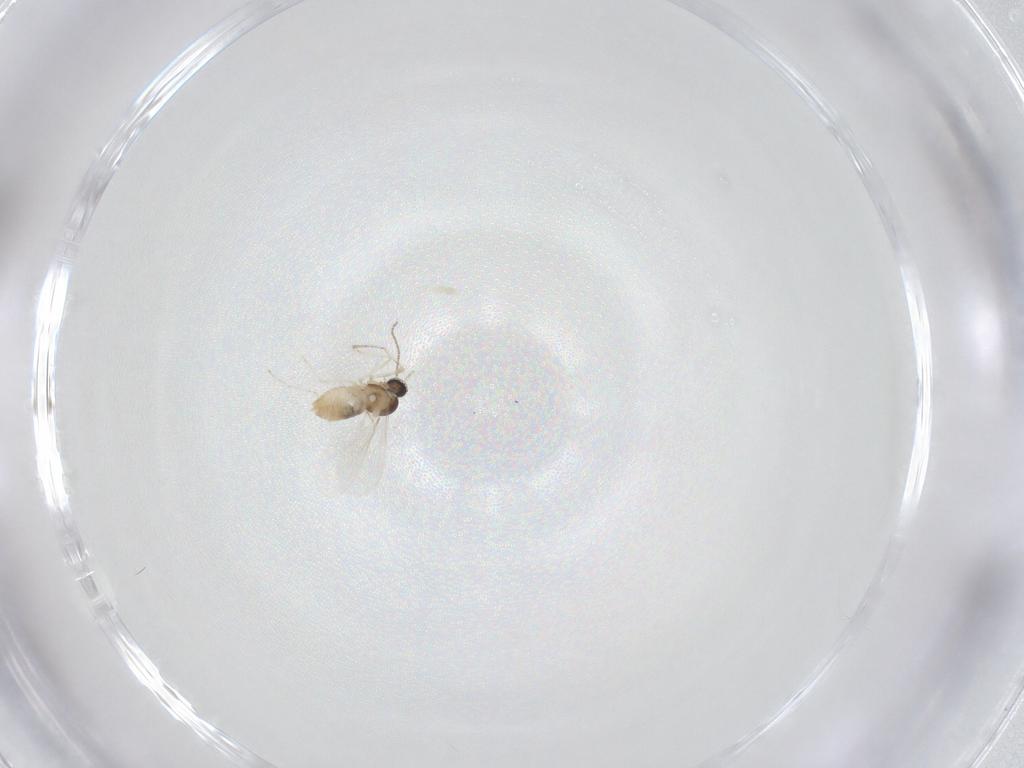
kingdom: Animalia
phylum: Arthropoda
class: Insecta
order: Diptera
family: Cecidomyiidae
